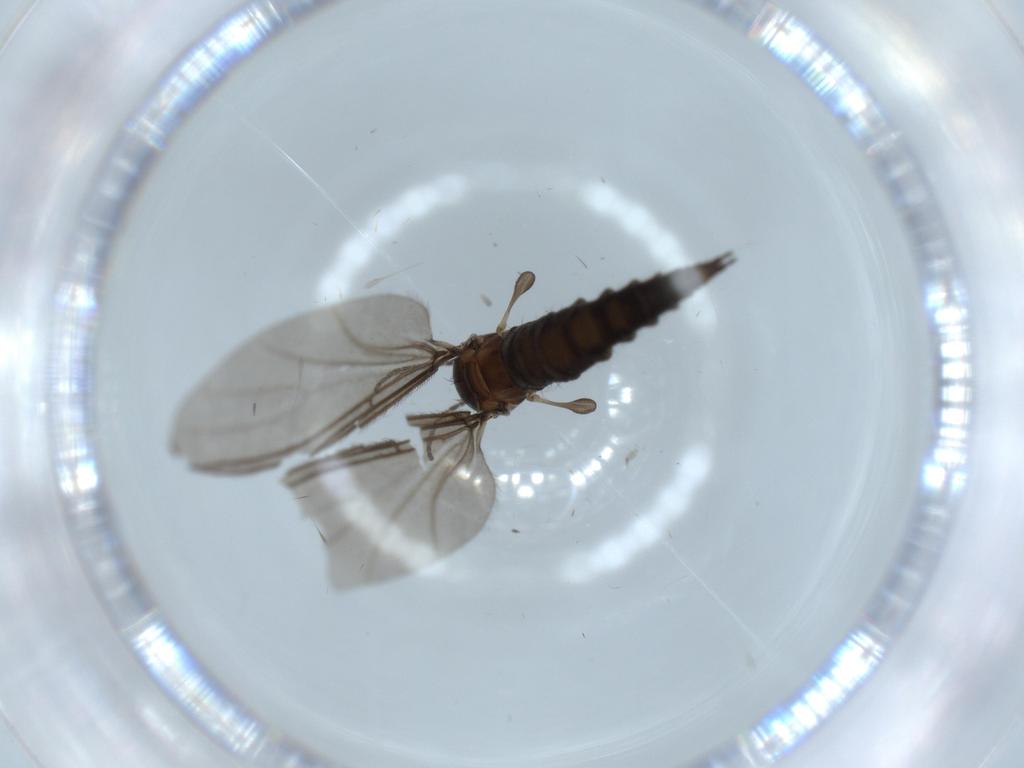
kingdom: Animalia
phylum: Arthropoda
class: Insecta
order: Diptera
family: Sciaridae
